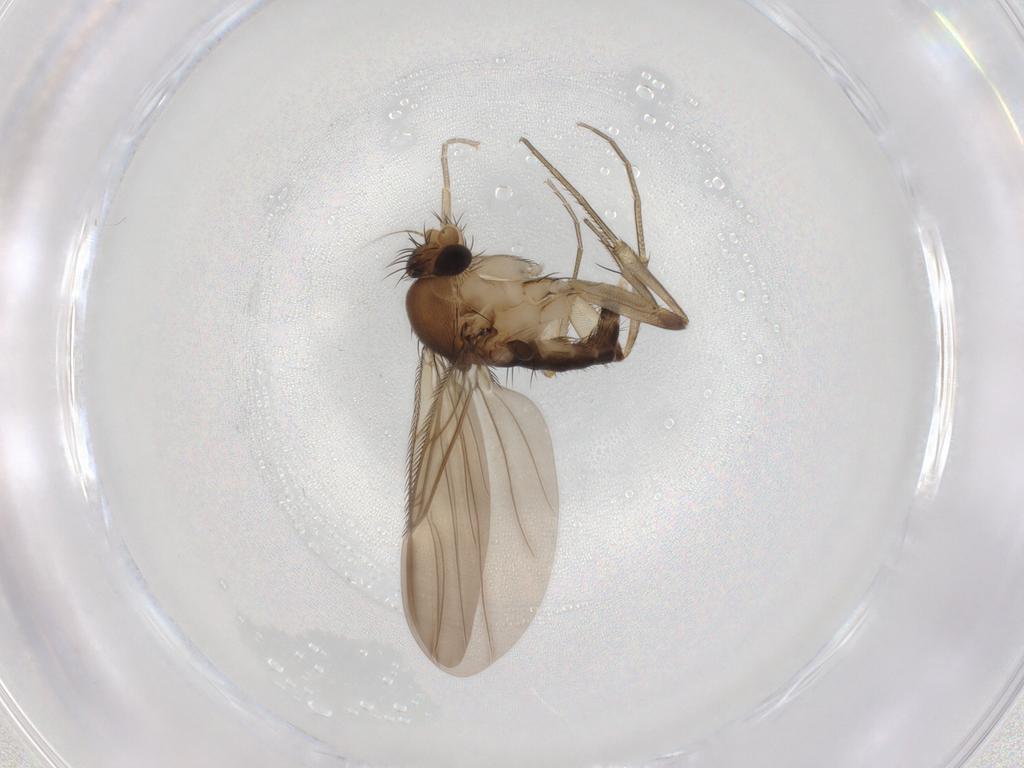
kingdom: Animalia
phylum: Arthropoda
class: Insecta
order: Diptera
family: Phoridae
